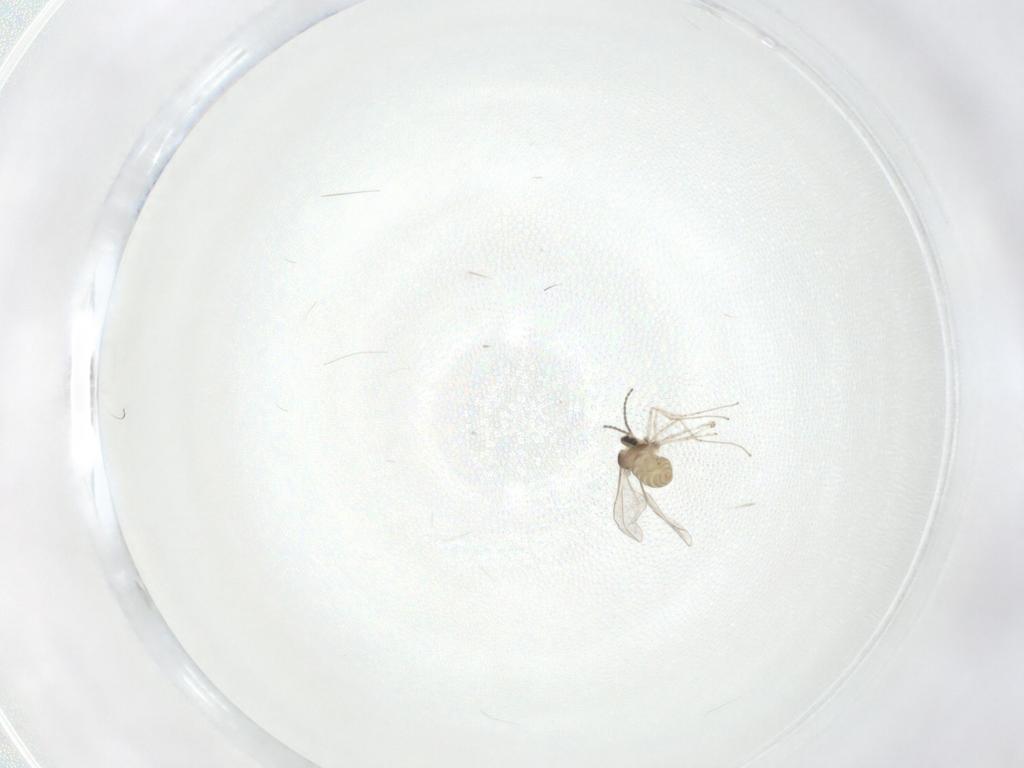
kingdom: Animalia
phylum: Arthropoda
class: Insecta
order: Diptera
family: Cecidomyiidae
